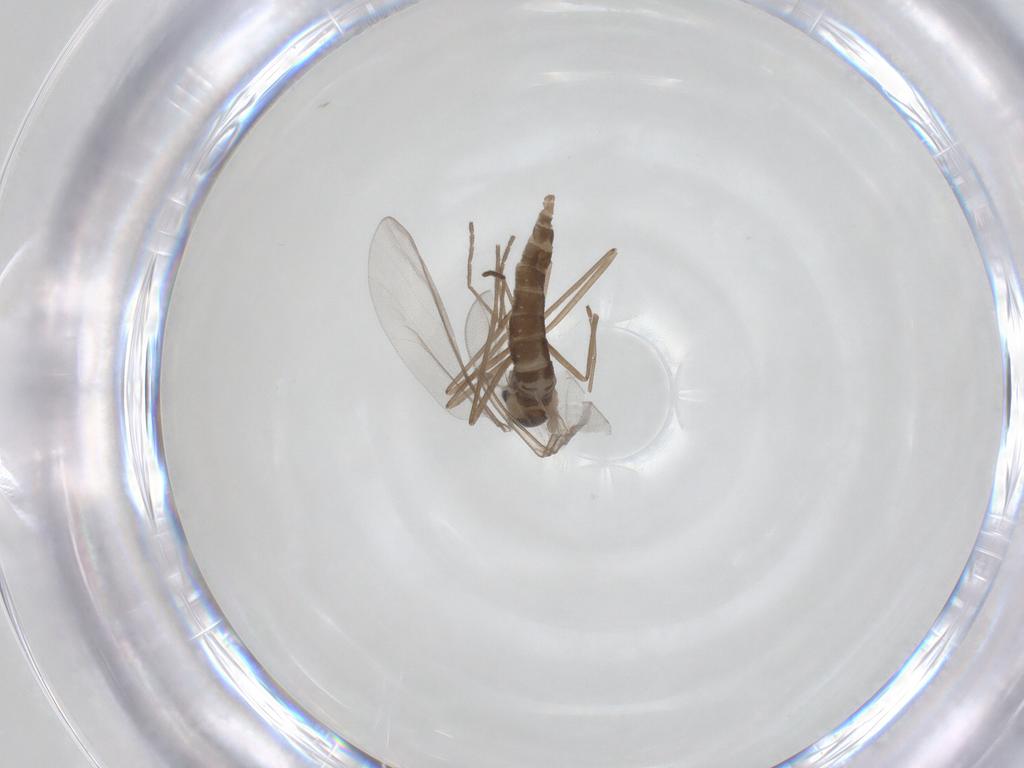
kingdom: Animalia
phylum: Arthropoda
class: Insecta
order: Diptera
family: Cecidomyiidae
